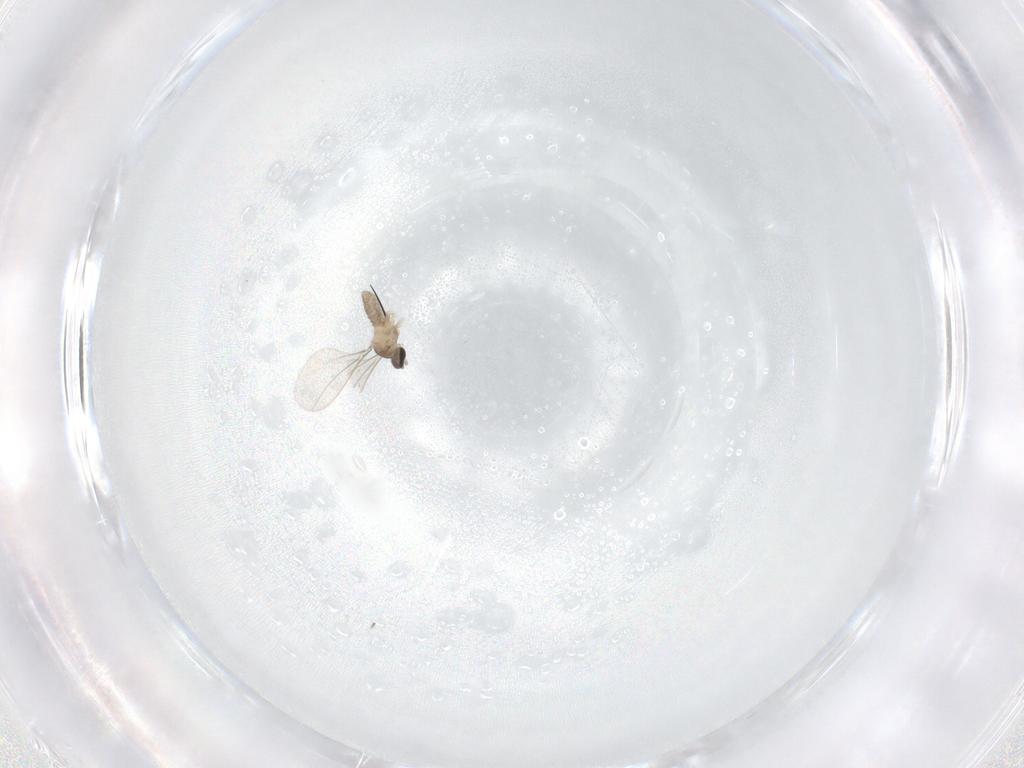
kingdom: Animalia
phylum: Arthropoda
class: Insecta
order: Diptera
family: Cecidomyiidae
